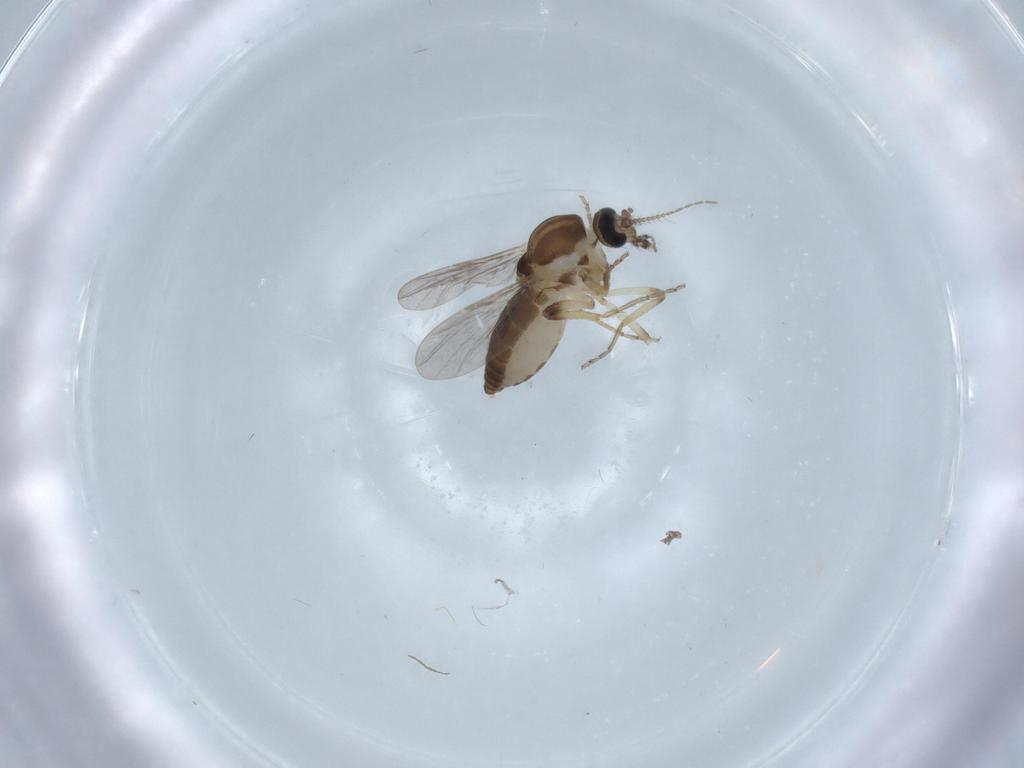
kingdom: Animalia
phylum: Arthropoda
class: Insecta
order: Diptera
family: Ceratopogonidae
